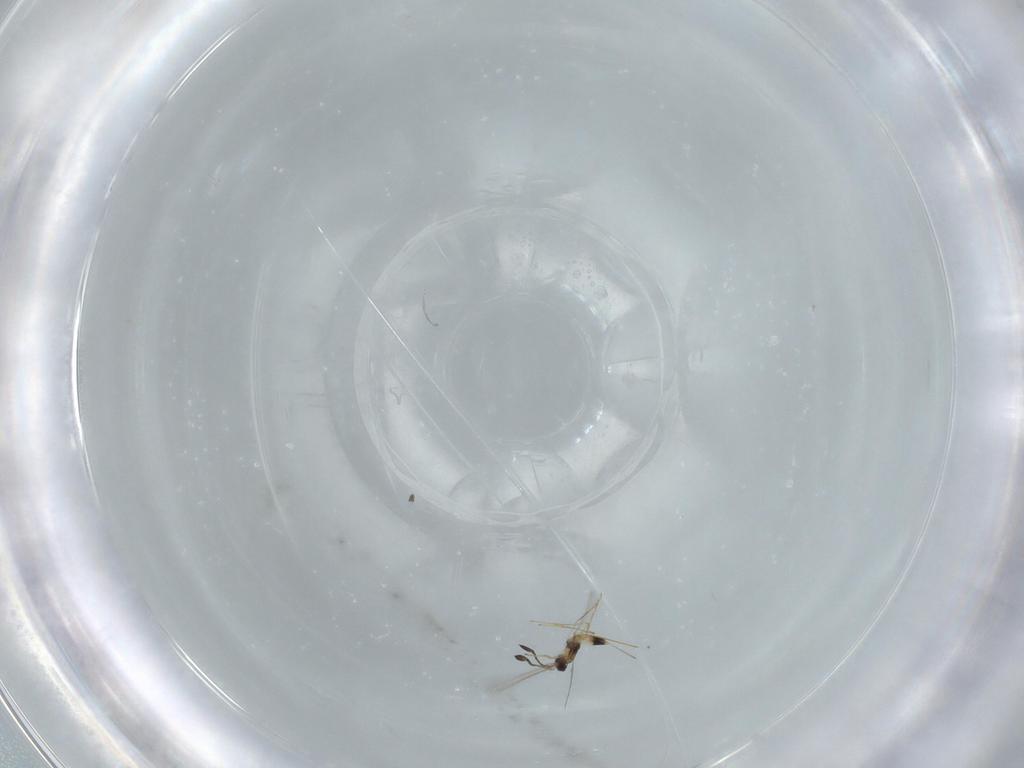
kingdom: Animalia
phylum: Arthropoda
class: Insecta
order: Hymenoptera
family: Mymaridae
